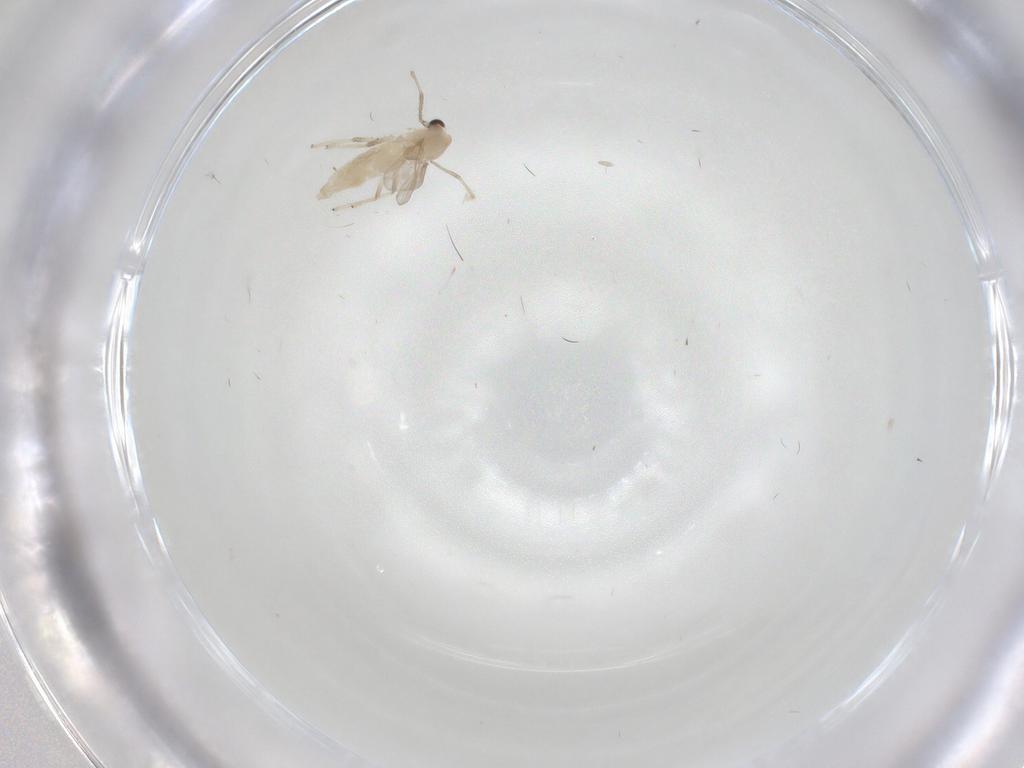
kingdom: Animalia
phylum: Arthropoda
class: Insecta
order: Diptera
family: Chironomidae
